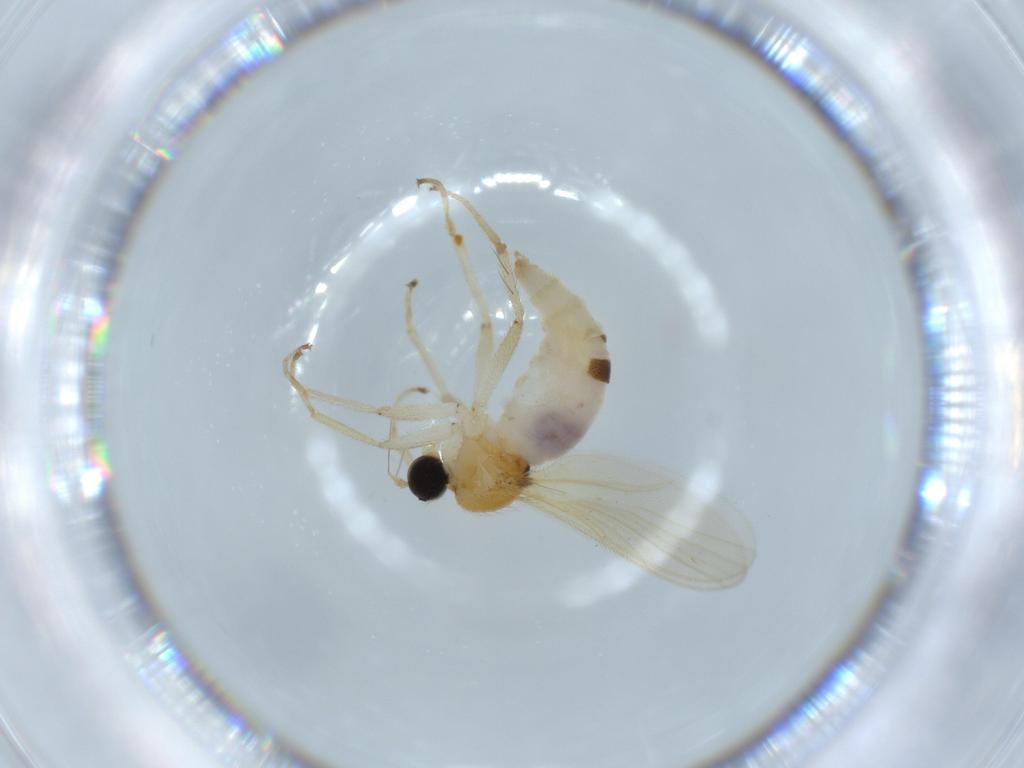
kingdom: Animalia
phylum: Arthropoda
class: Insecta
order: Diptera
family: Hybotidae
